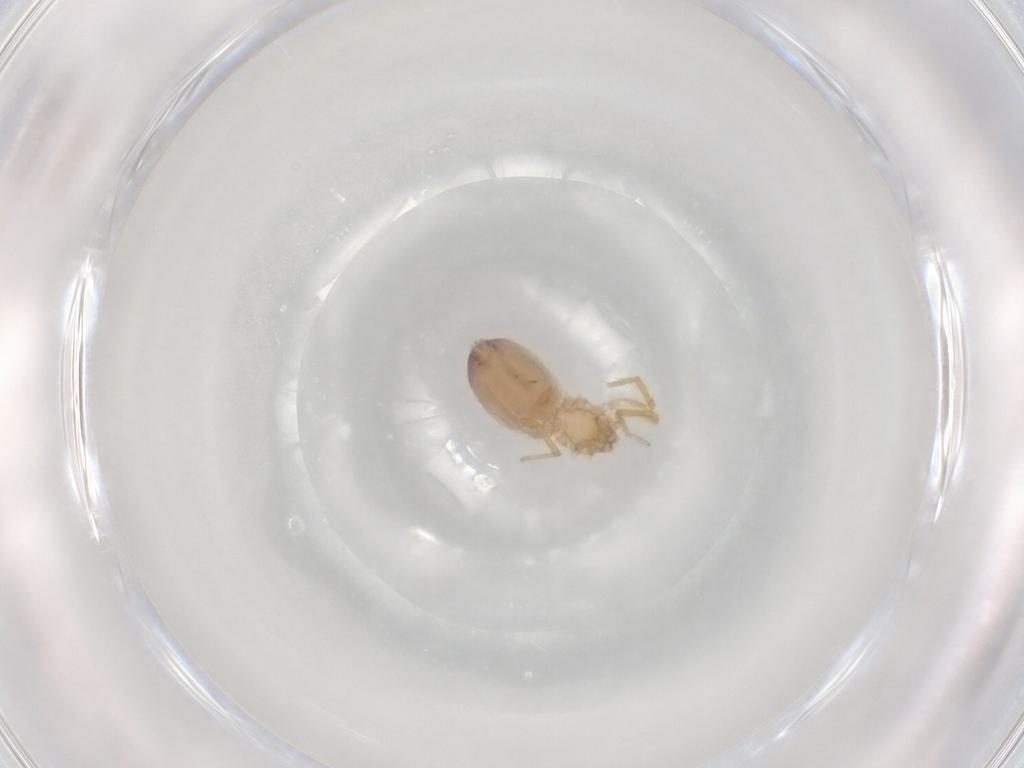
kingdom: Animalia
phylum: Arthropoda
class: Arachnida
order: Araneae
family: Dictynidae
